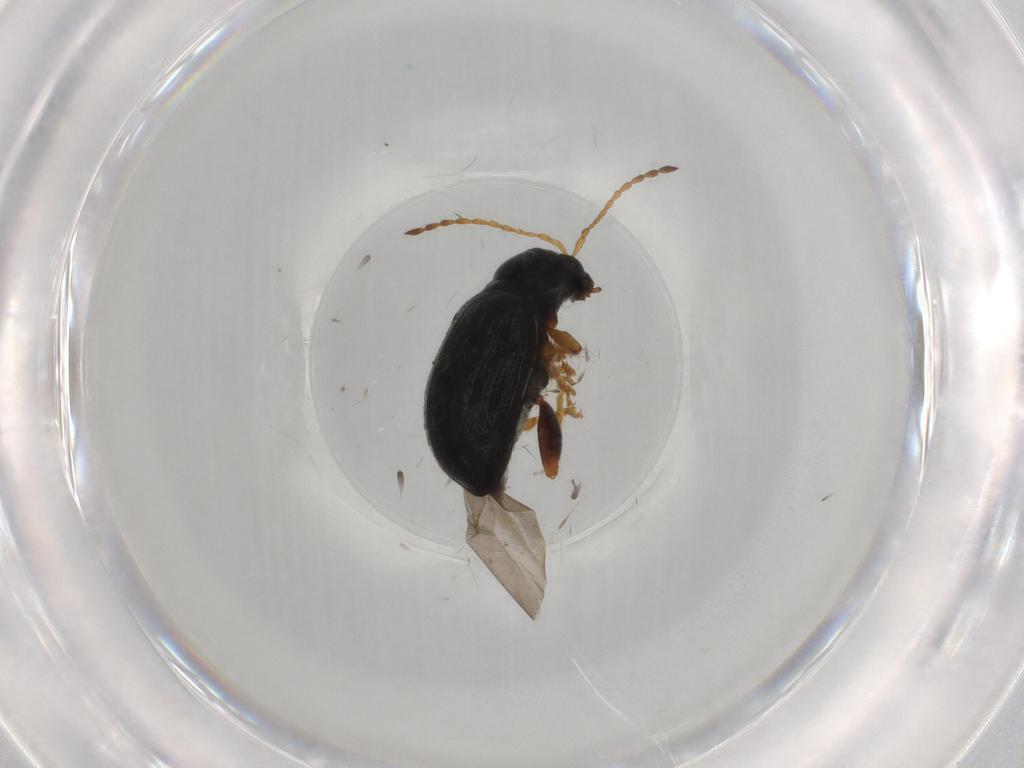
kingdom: Animalia
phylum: Arthropoda
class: Insecta
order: Coleoptera
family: Chrysomelidae
